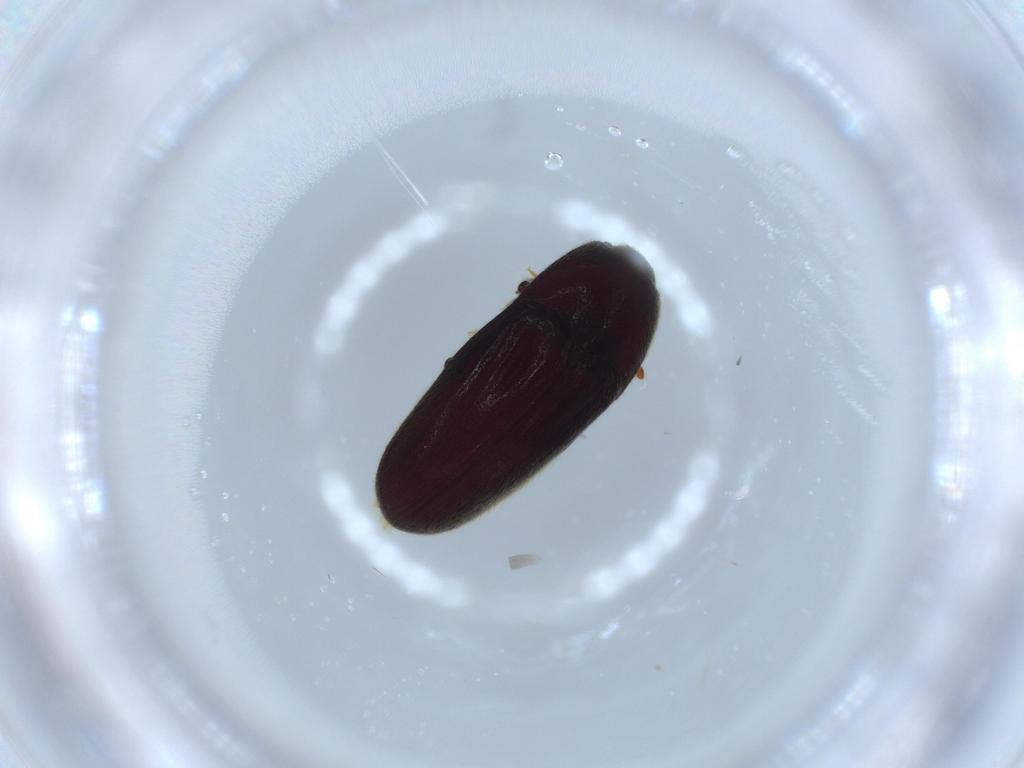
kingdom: Animalia
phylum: Arthropoda
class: Insecta
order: Coleoptera
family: Throscidae
